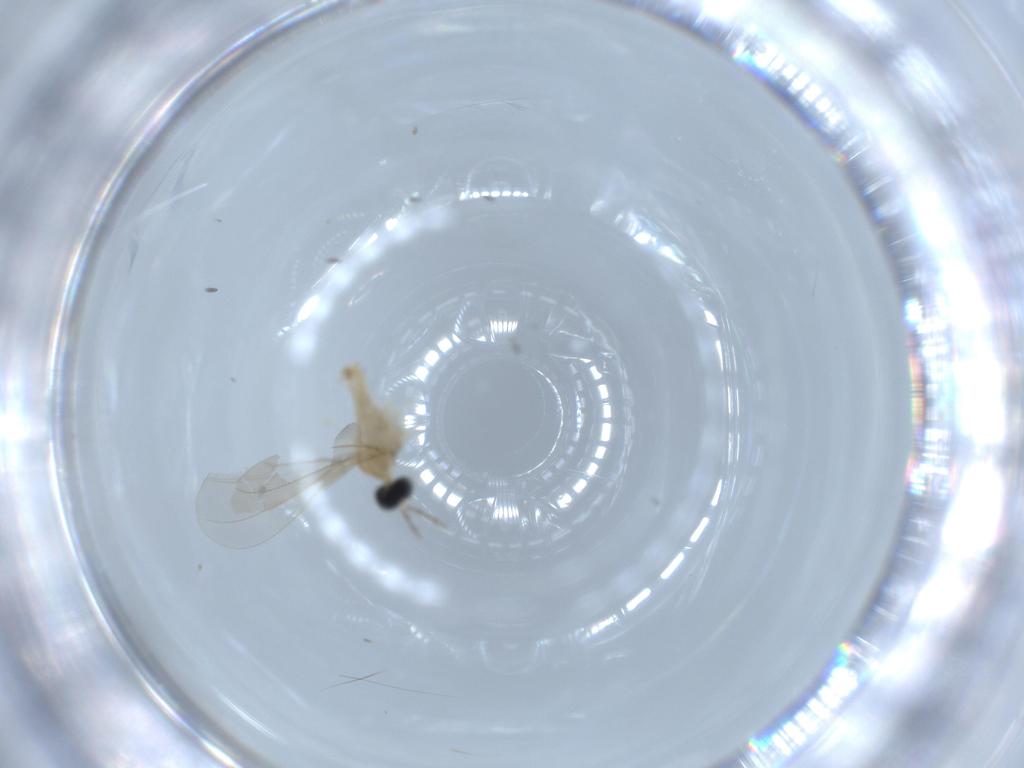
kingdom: Animalia
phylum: Arthropoda
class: Insecta
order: Diptera
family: Cecidomyiidae
